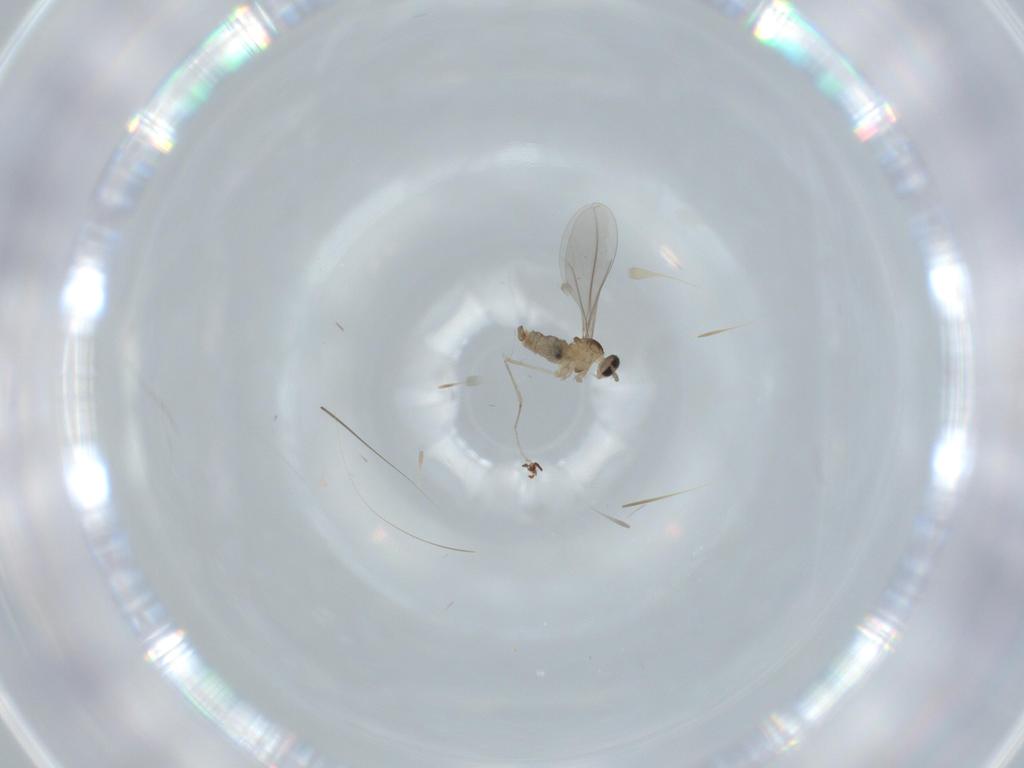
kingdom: Animalia
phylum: Arthropoda
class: Insecta
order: Diptera
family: Cecidomyiidae
